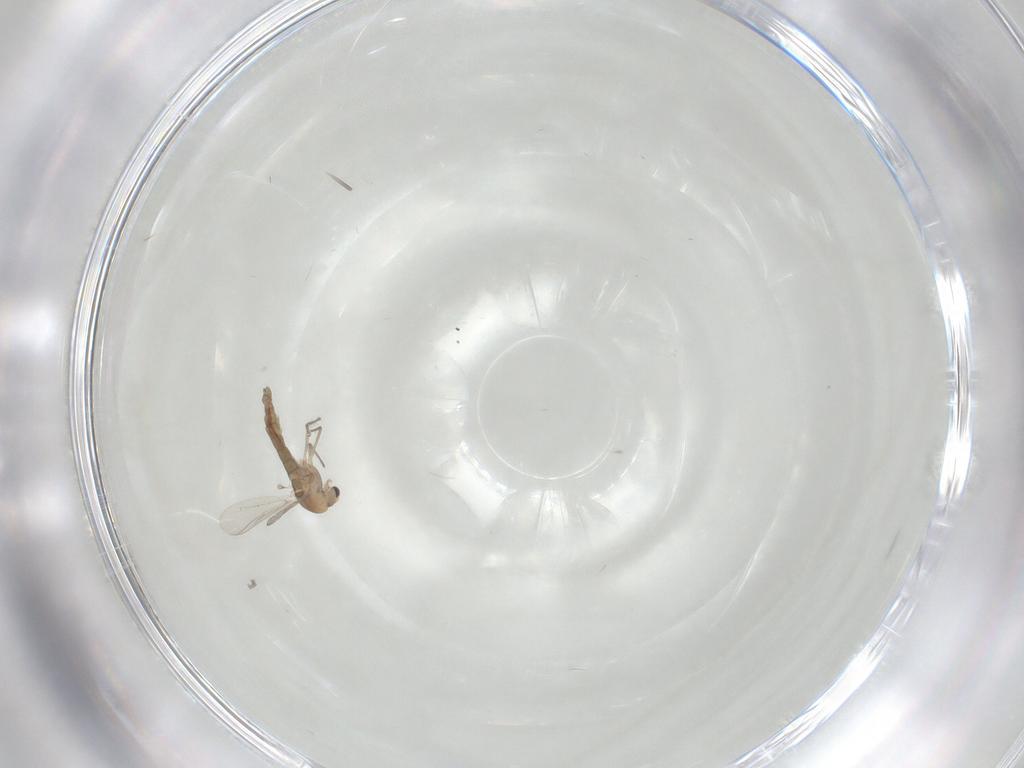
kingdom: Animalia
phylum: Arthropoda
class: Insecta
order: Diptera
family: Chironomidae
